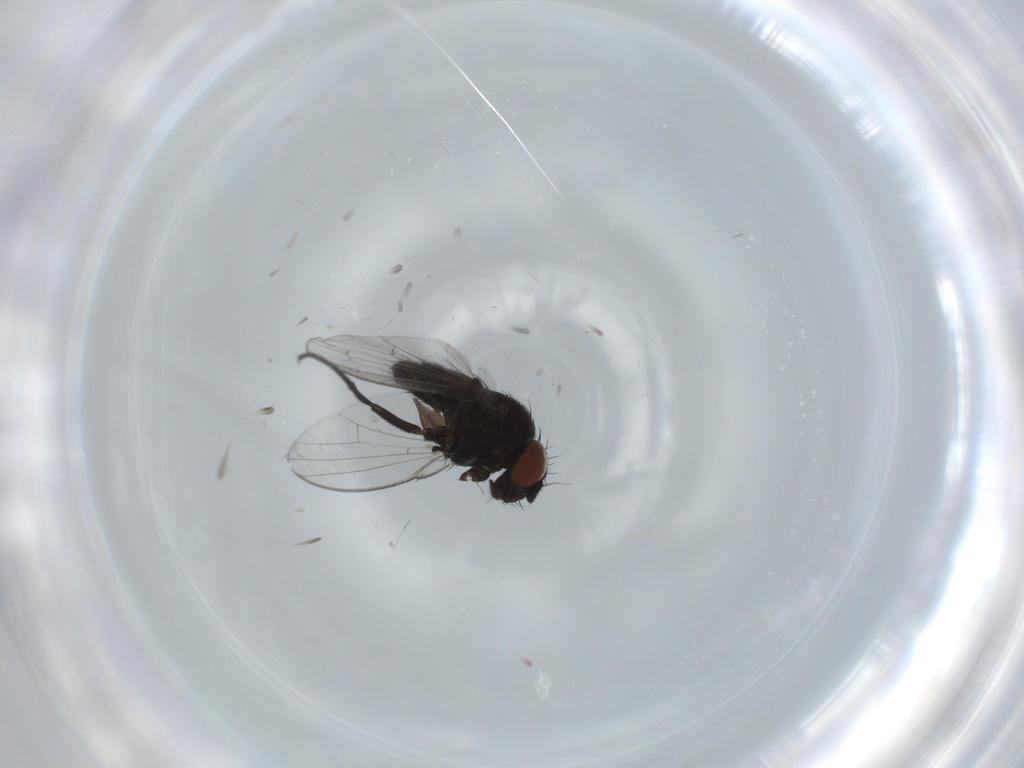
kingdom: Animalia
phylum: Arthropoda
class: Insecta
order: Diptera
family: Milichiidae
